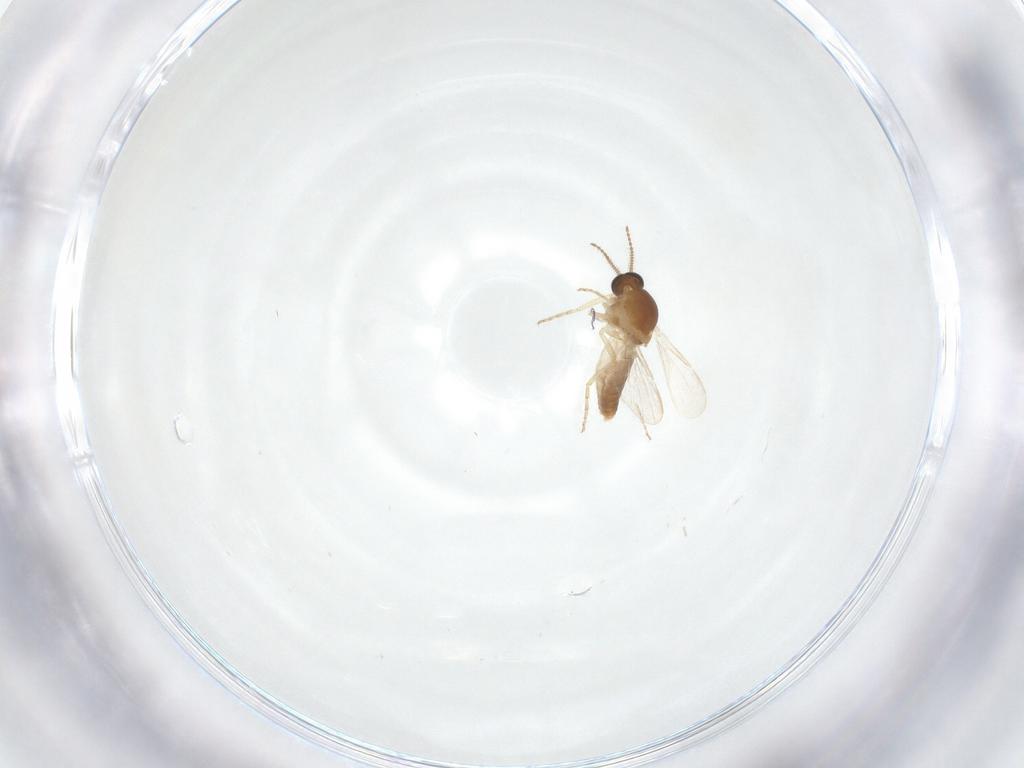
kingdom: Animalia
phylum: Arthropoda
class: Insecta
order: Diptera
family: Ceratopogonidae
